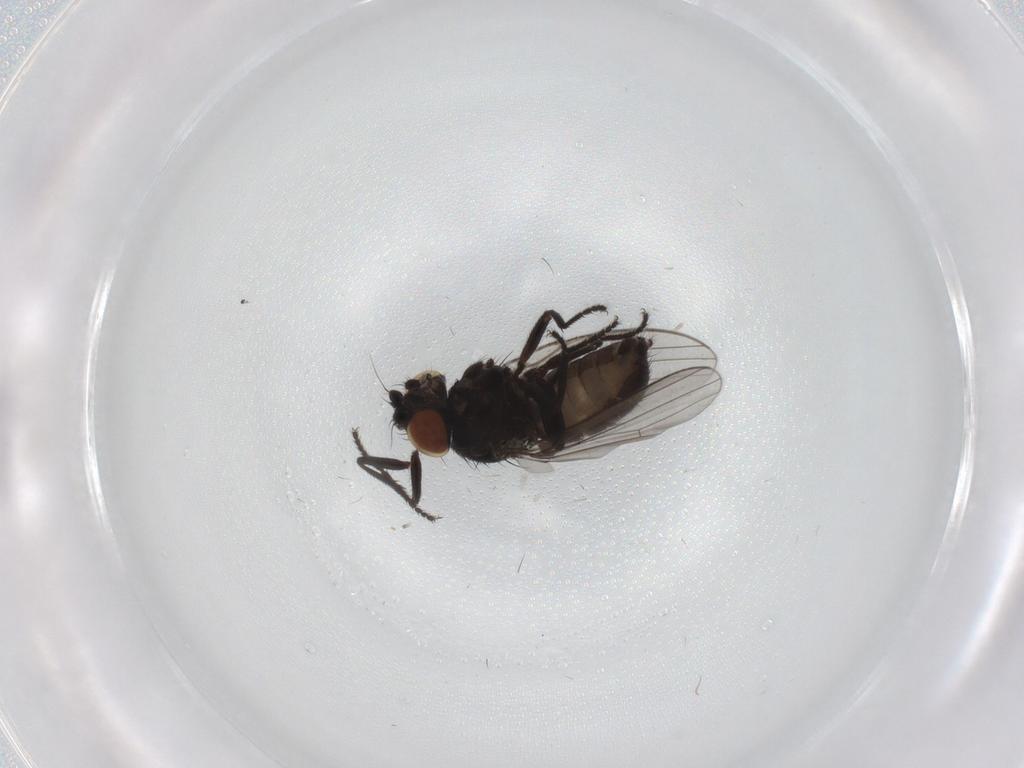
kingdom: Animalia
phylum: Arthropoda
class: Insecta
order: Diptera
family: Milichiidae
